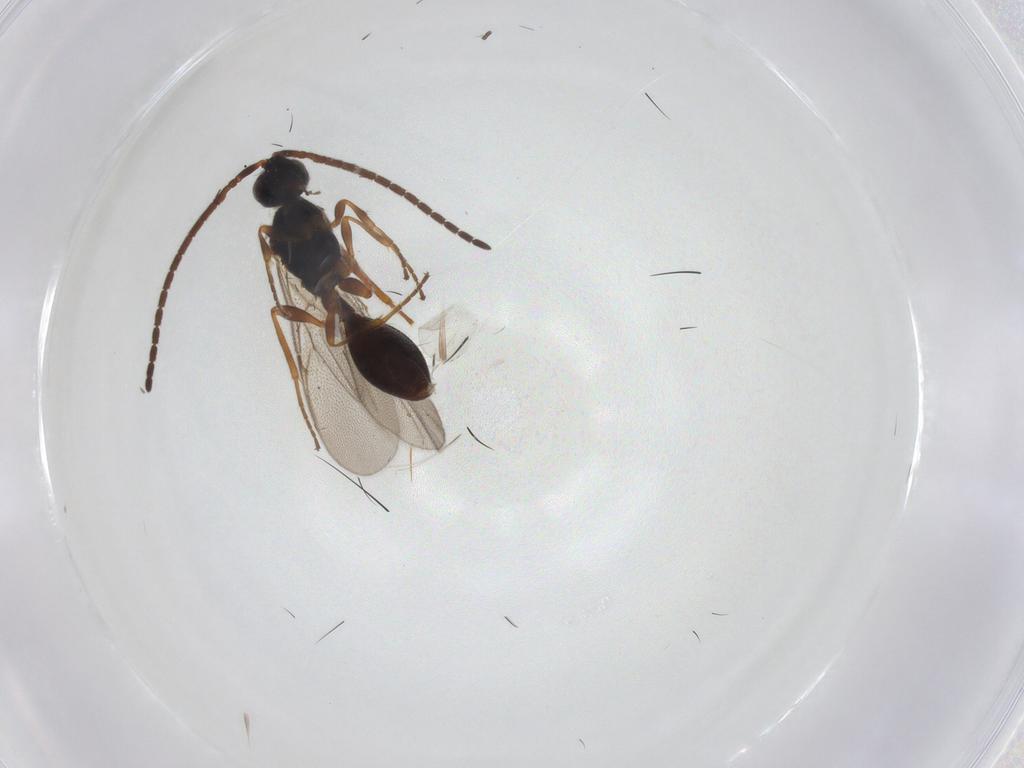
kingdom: Animalia
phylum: Arthropoda
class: Insecta
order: Hymenoptera
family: Diapriidae
